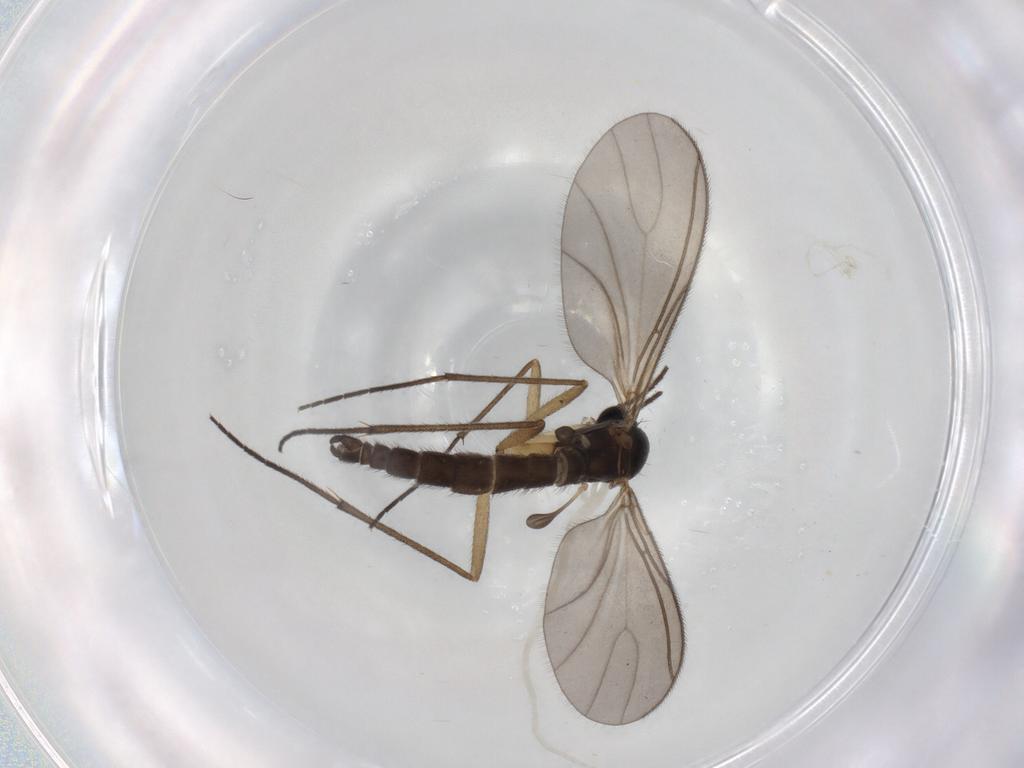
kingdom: Animalia
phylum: Arthropoda
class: Insecta
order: Diptera
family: Sciaridae
